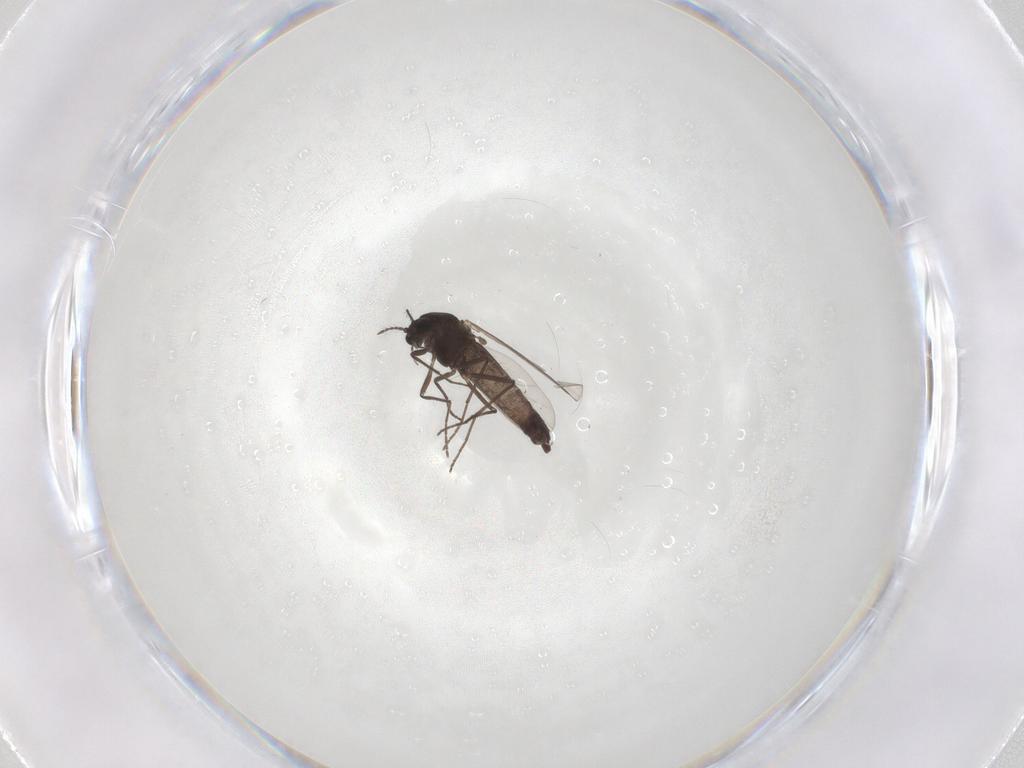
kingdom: Animalia
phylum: Arthropoda
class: Insecta
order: Diptera
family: Chironomidae
